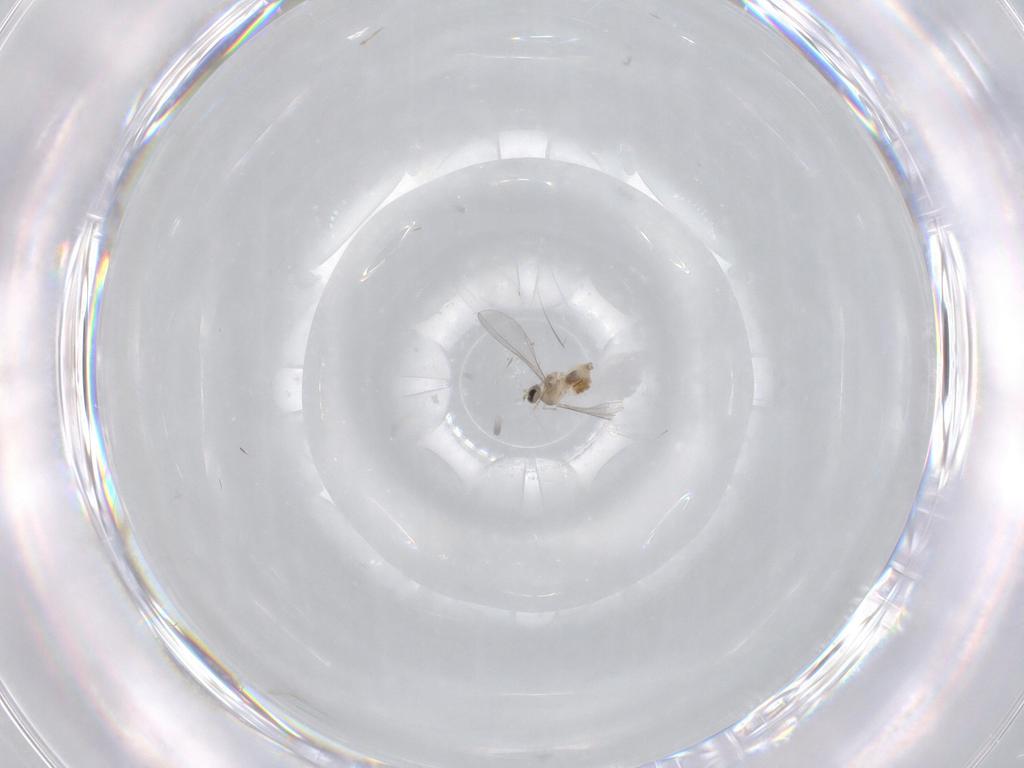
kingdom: Animalia
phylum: Arthropoda
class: Insecta
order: Diptera
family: Cecidomyiidae
